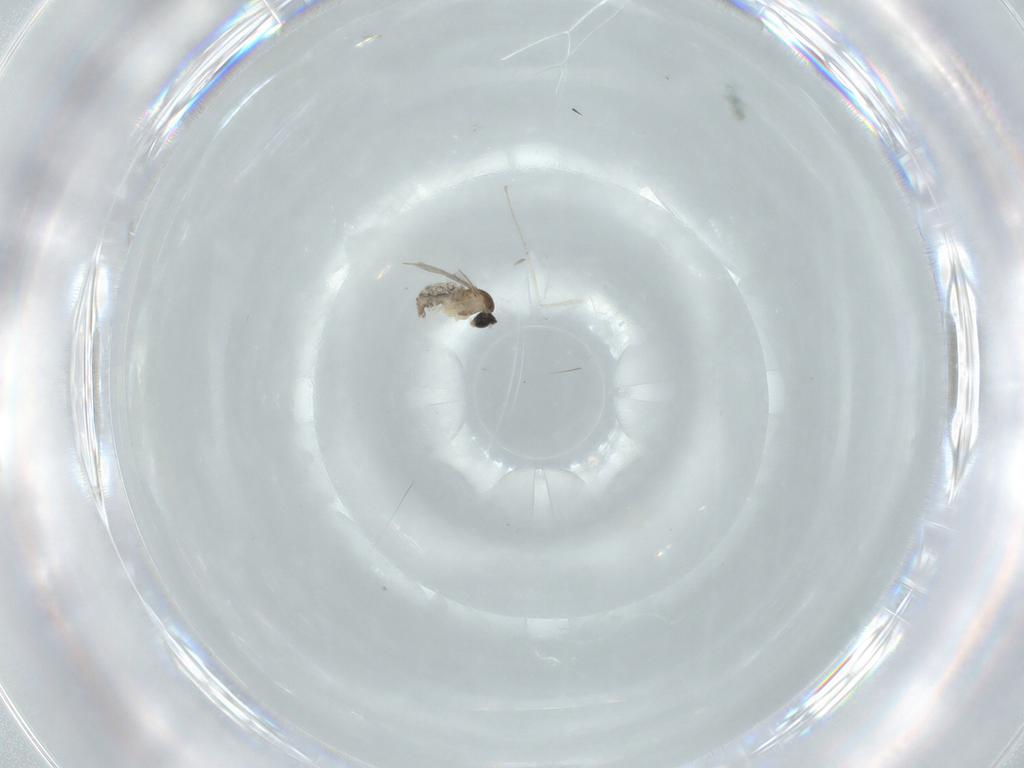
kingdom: Animalia
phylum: Arthropoda
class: Insecta
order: Diptera
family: Cecidomyiidae
